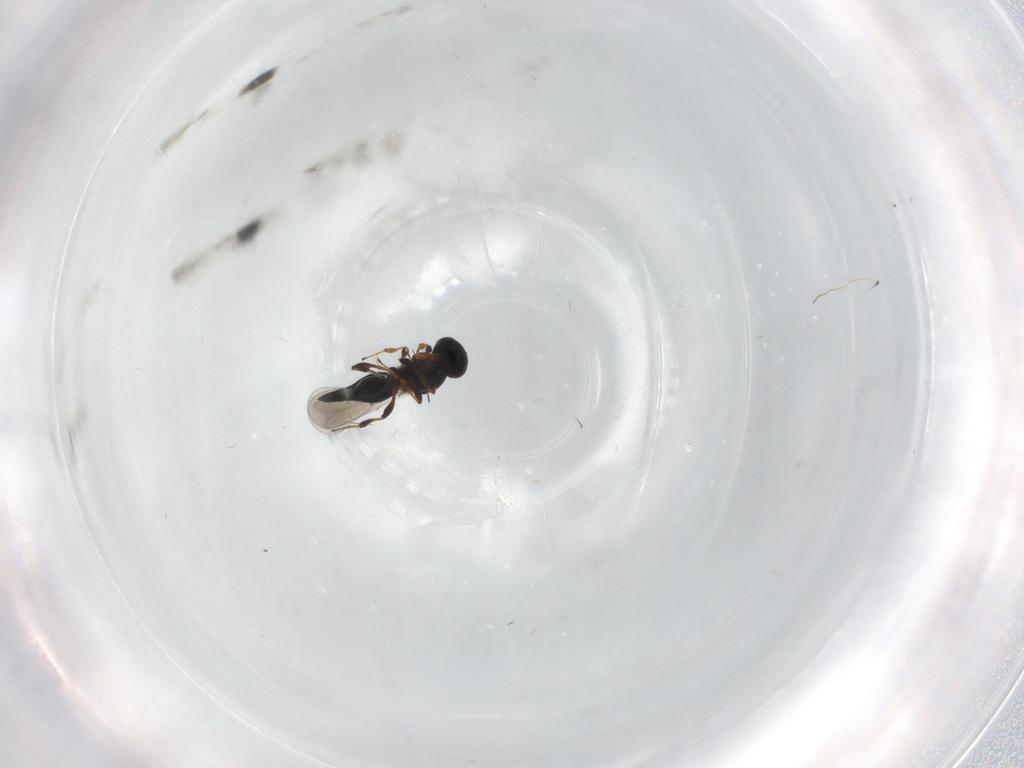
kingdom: Animalia
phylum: Arthropoda
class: Insecta
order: Hymenoptera
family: Platygastridae
